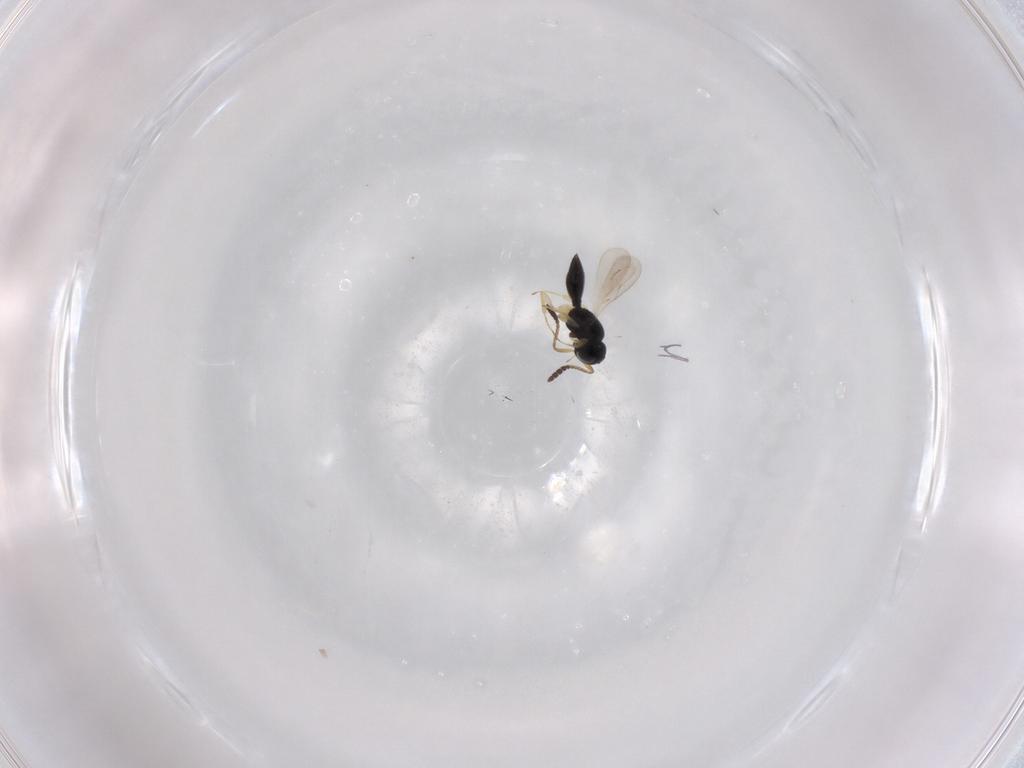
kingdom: Animalia
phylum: Arthropoda
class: Insecta
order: Hymenoptera
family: Scelionidae
